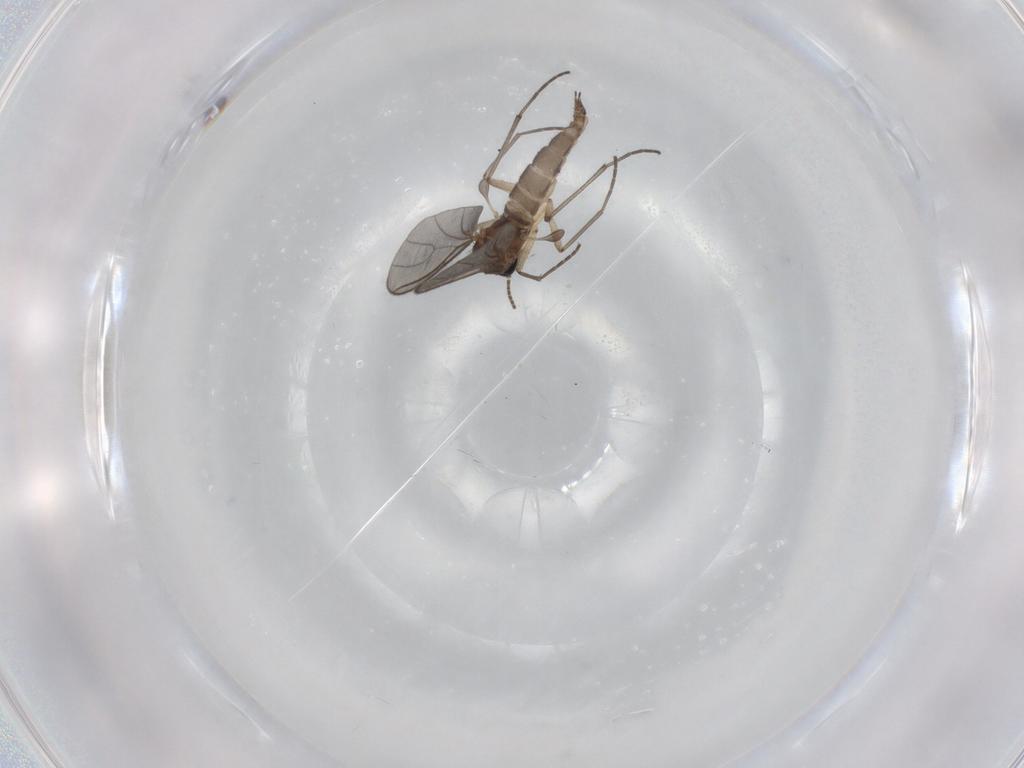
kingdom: Animalia
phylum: Arthropoda
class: Insecta
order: Diptera
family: Sciaridae
